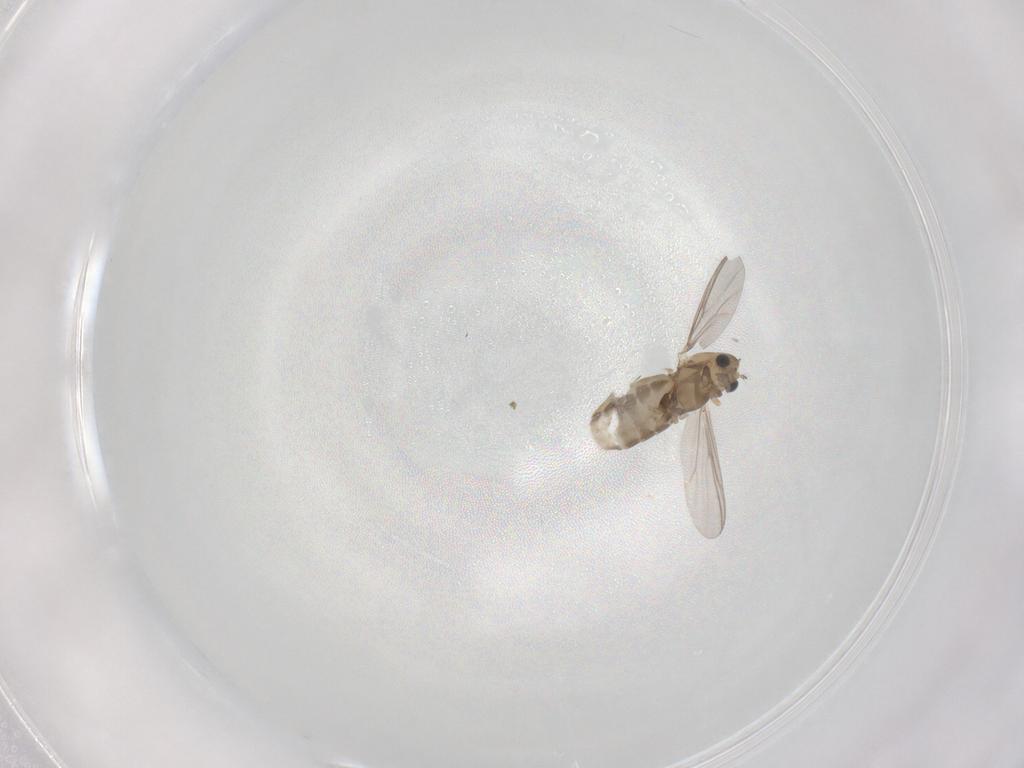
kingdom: Animalia
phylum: Arthropoda
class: Insecta
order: Diptera
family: Chironomidae
